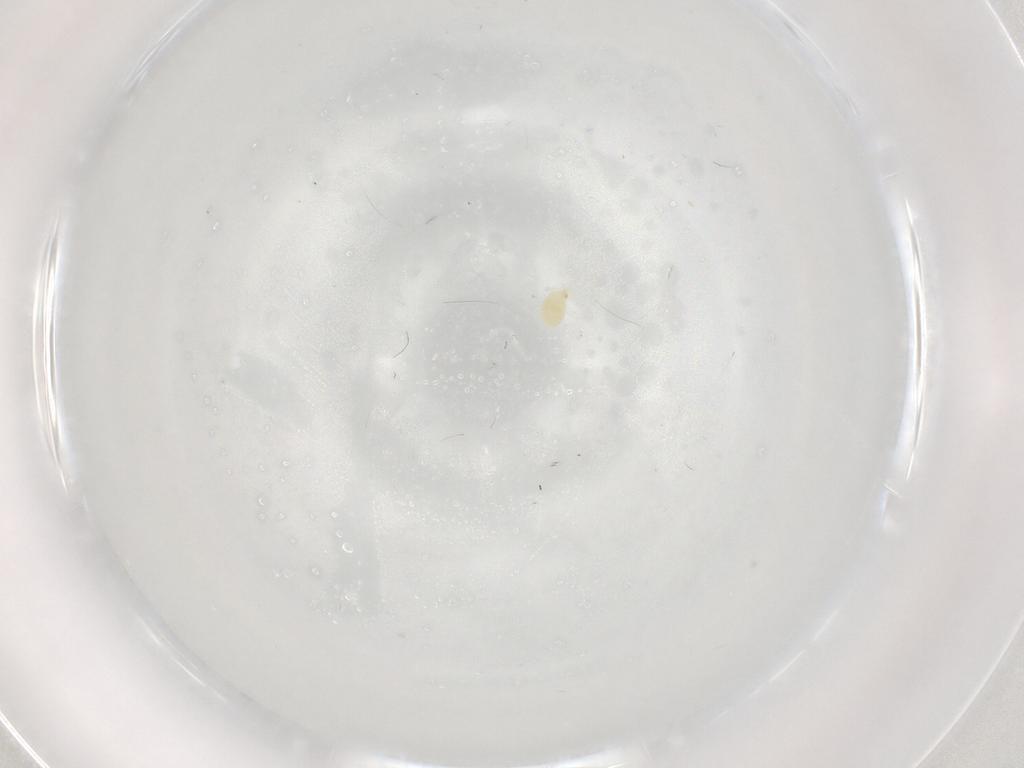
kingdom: Animalia
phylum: Arthropoda
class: Arachnida
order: Trombidiformes
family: Eupodidae
